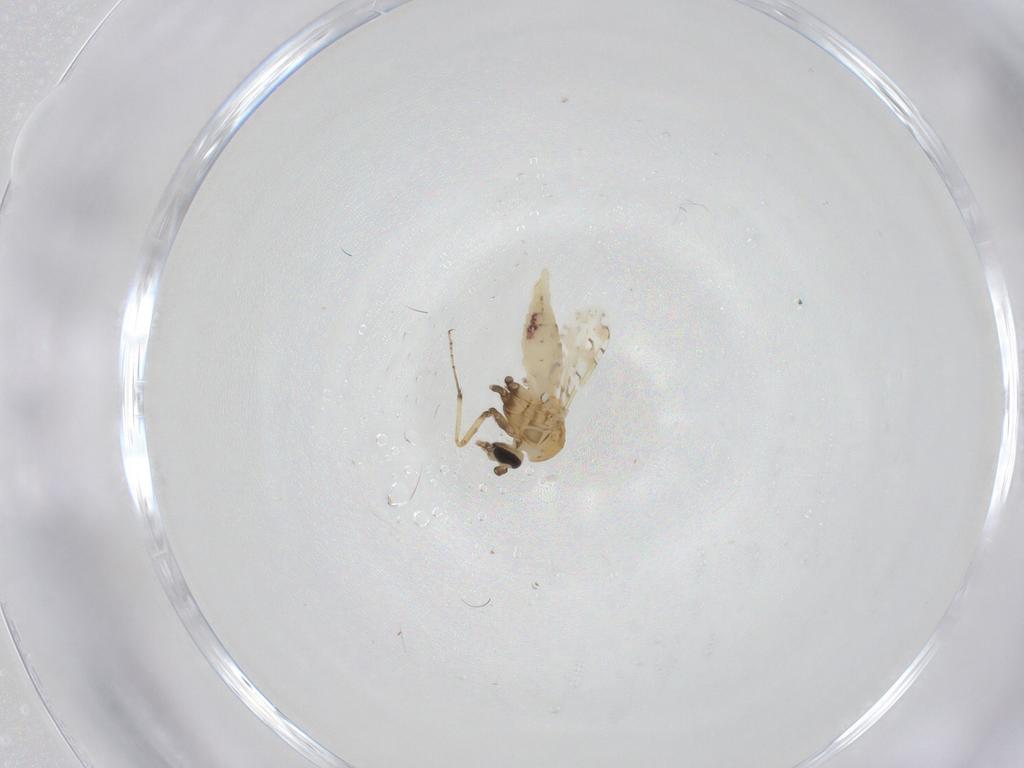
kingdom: Animalia
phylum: Arthropoda
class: Insecta
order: Diptera
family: Ceratopogonidae
